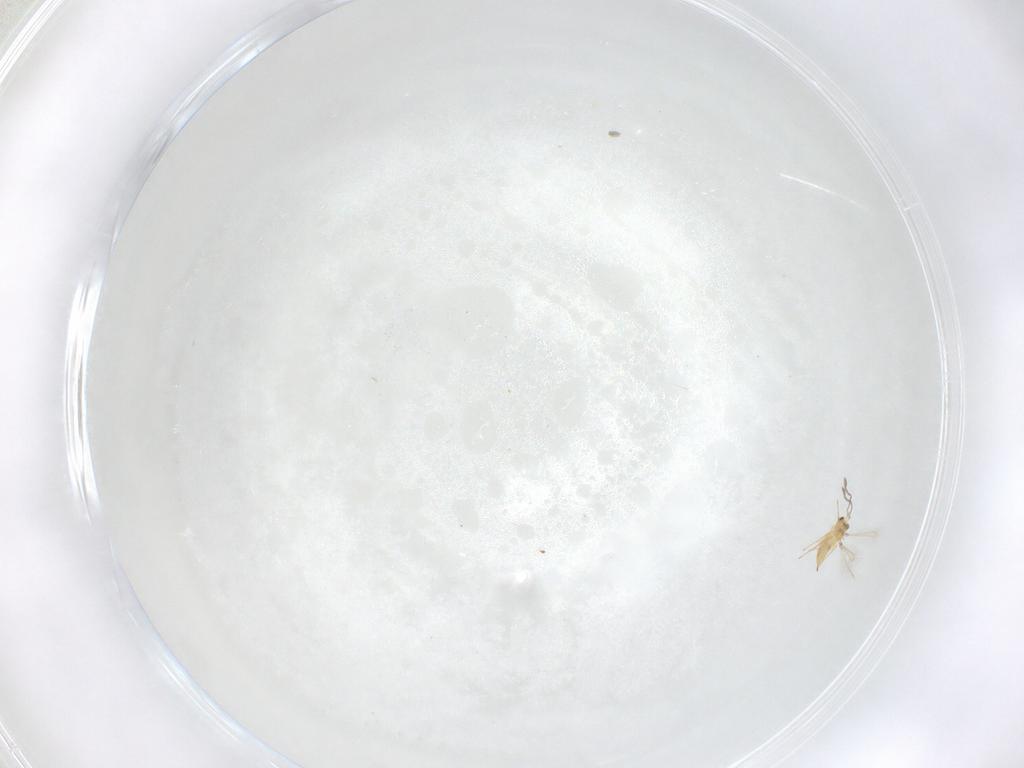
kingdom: Animalia
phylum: Arthropoda
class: Insecta
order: Hymenoptera
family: Mymaridae
